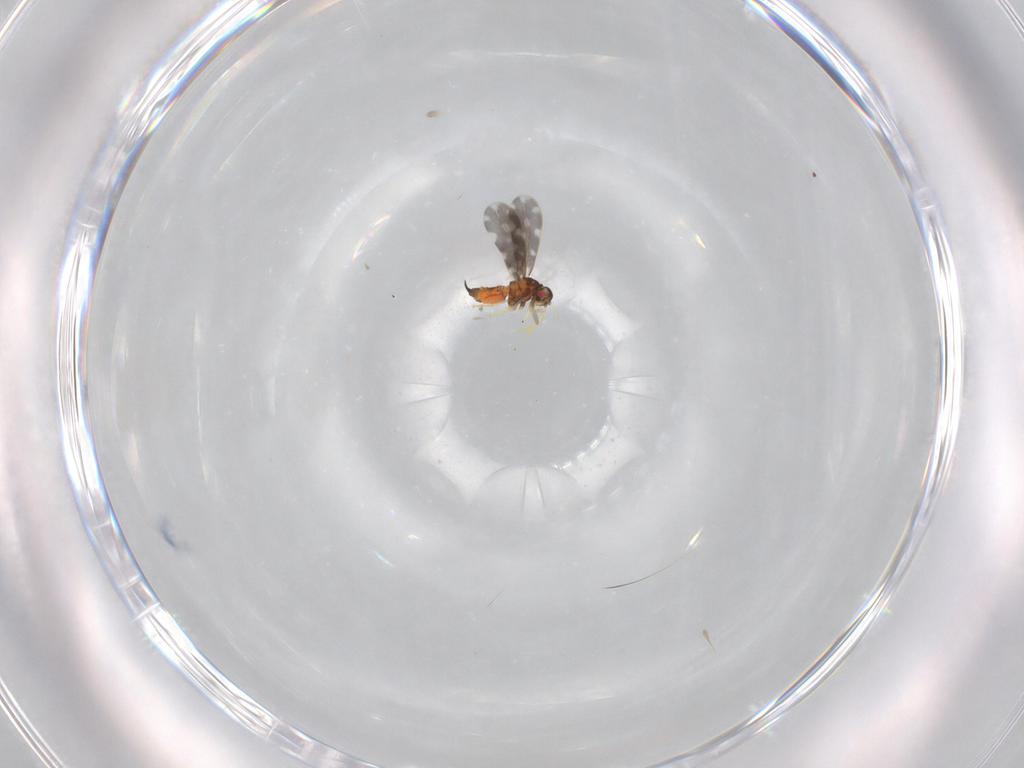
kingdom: Animalia
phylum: Arthropoda
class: Insecta
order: Hemiptera
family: Aleyrodidae
